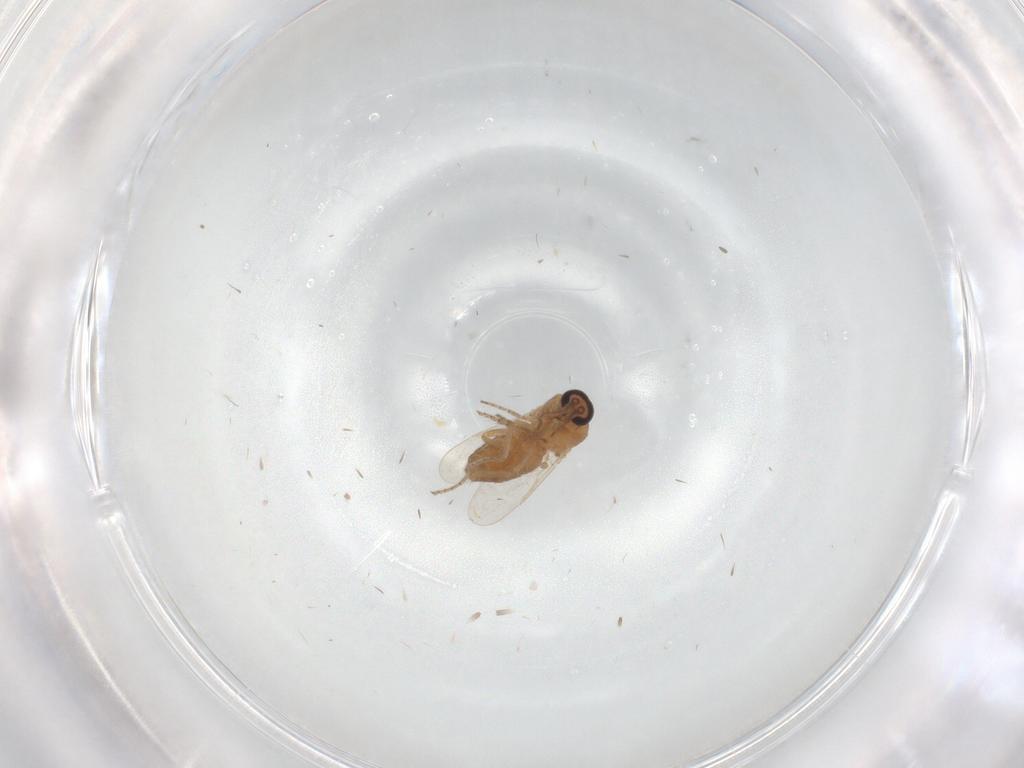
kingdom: Animalia
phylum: Arthropoda
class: Insecta
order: Diptera
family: Ceratopogonidae
